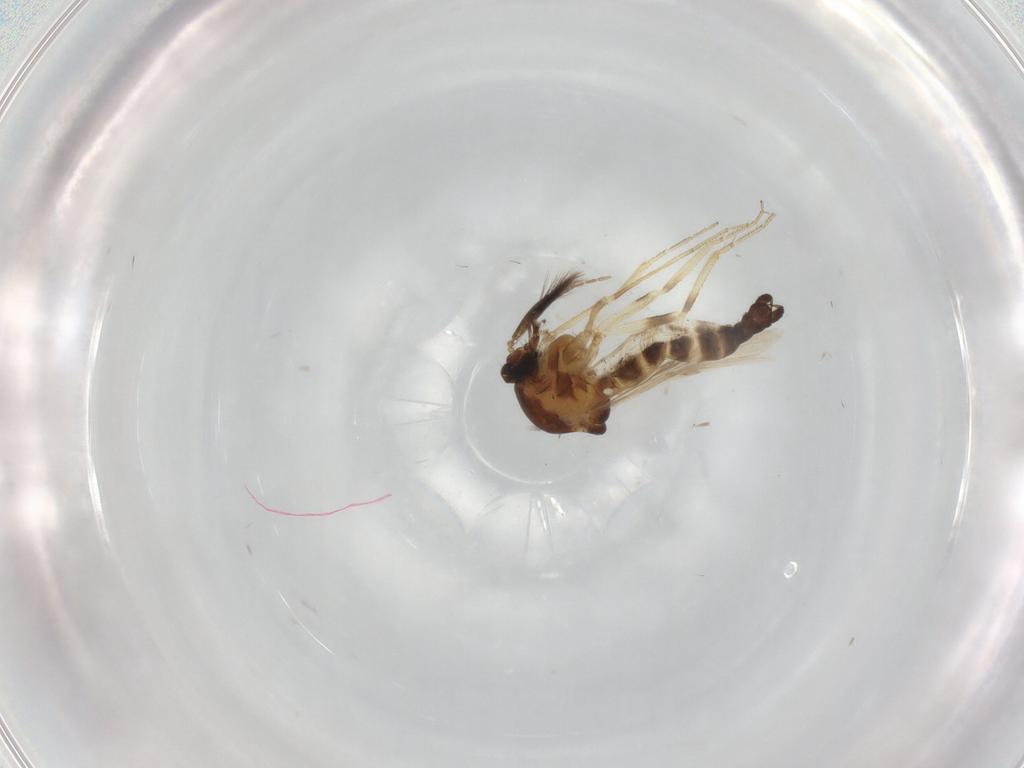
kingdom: Animalia
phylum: Arthropoda
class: Insecta
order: Diptera
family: Ceratopogonidae
